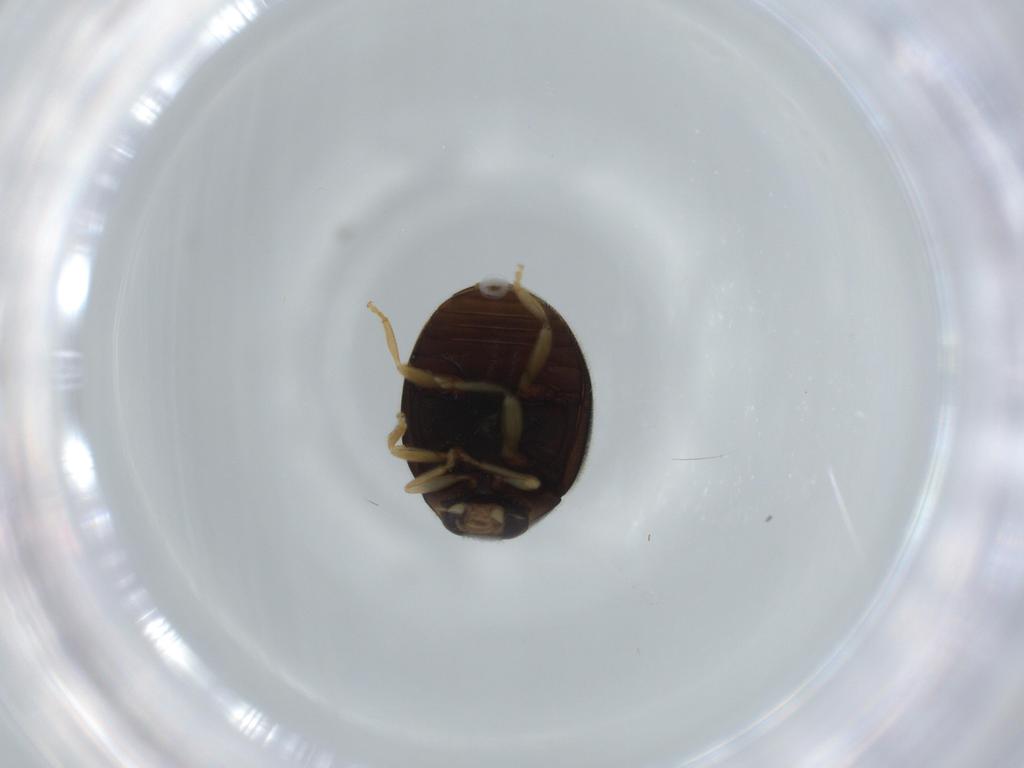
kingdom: Animalia
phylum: Arthropoda
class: Insecta
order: Coleoptera
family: Coccinellidae
